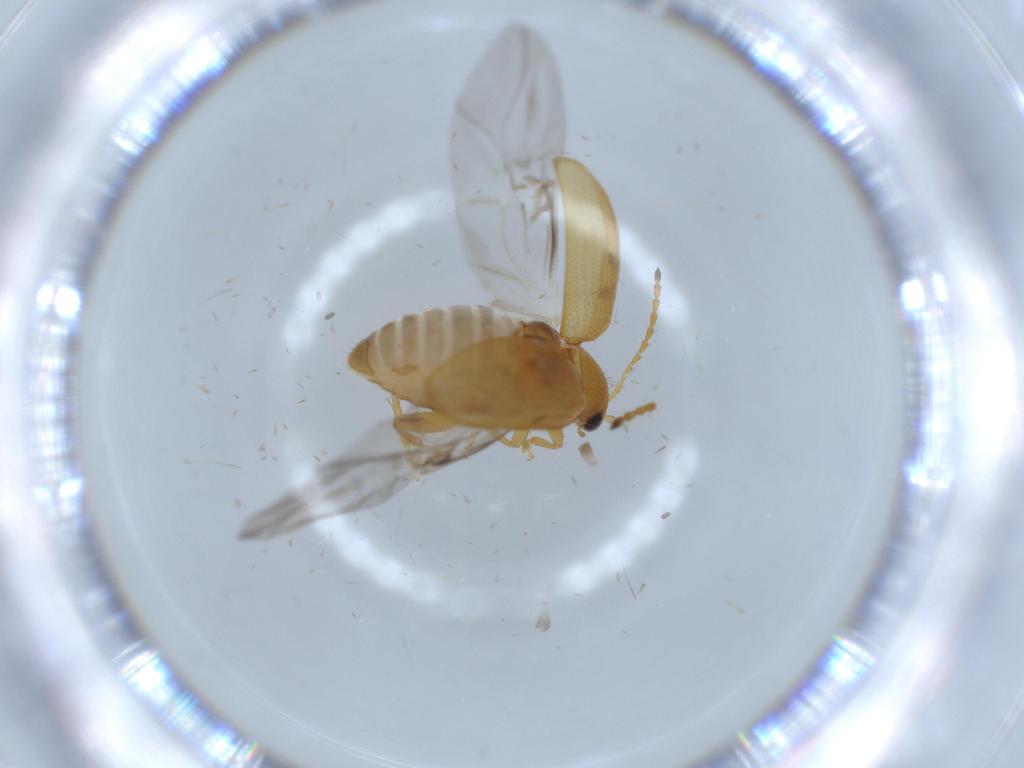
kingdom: Animalia
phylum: Arthropoda
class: Insecta
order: Coleoptera
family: Chrysomelidae
